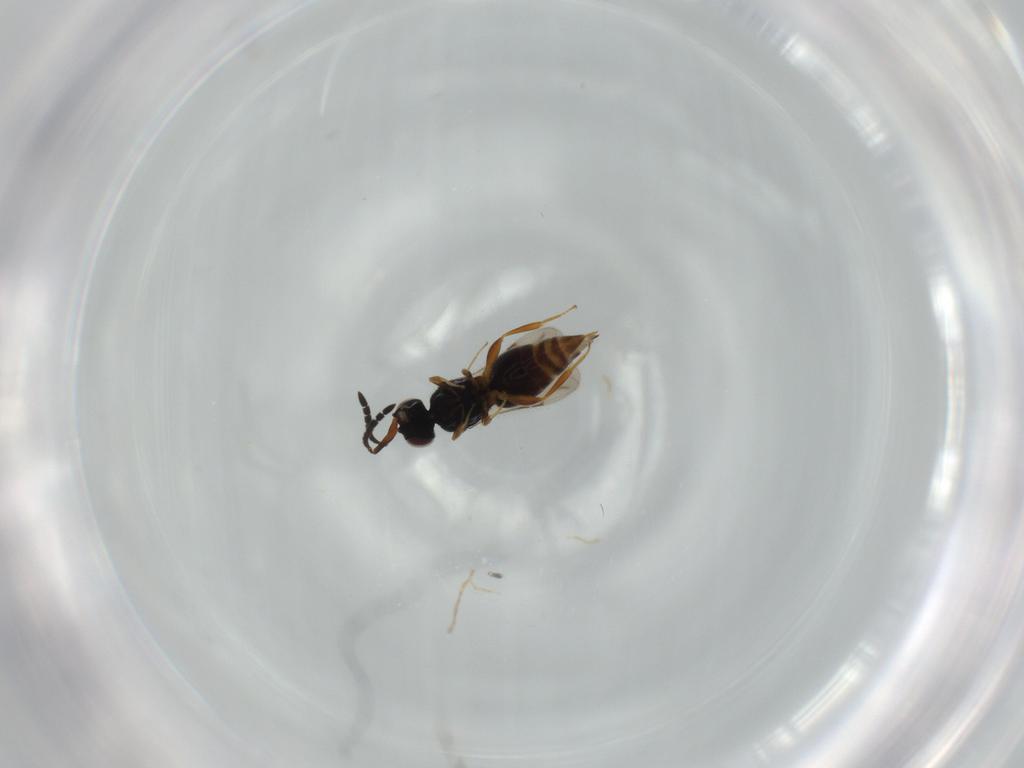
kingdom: Animalia
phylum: Arthropoda
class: Insecta
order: Hymenoptera
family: Ceraphronidae
